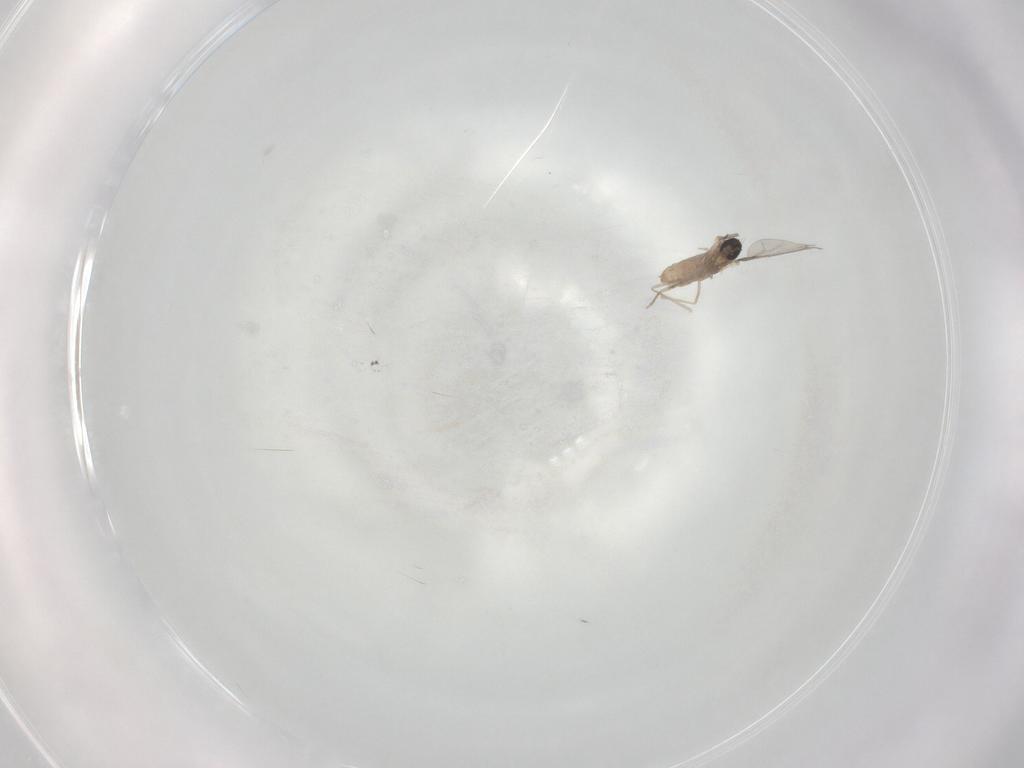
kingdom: Animalia
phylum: Arthropoda
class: Insecta
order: Diptera
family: Cecidomyiidae
